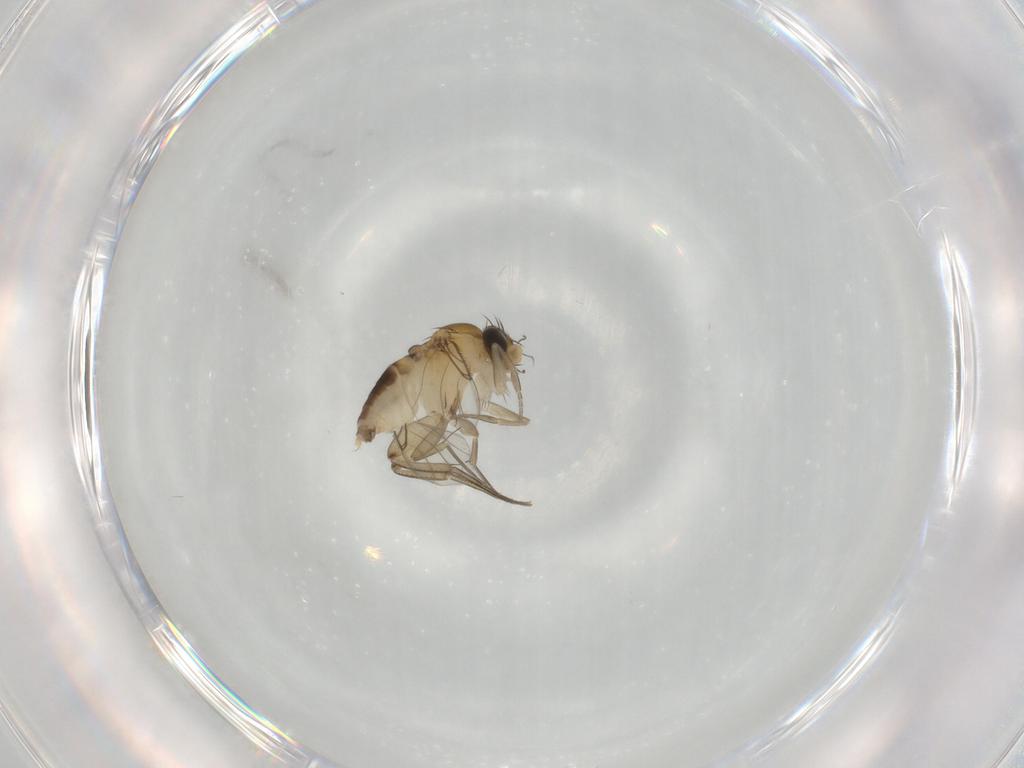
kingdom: Animalia
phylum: Arthropoda
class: Insecta
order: Diptera
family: Phoridae
